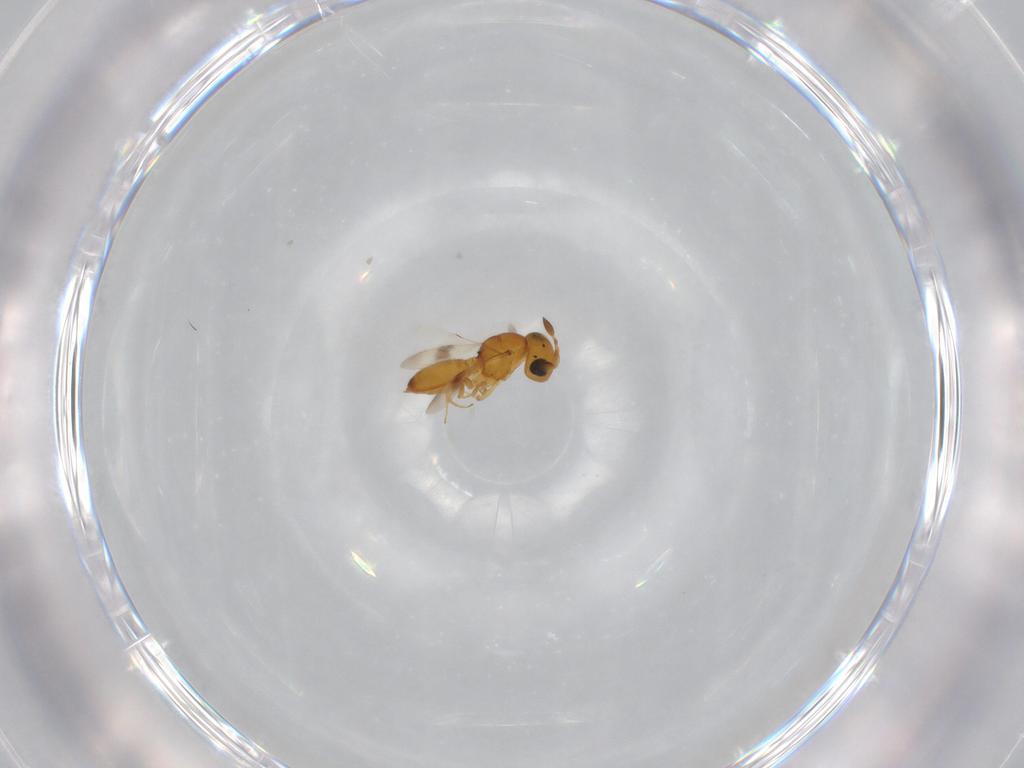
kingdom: Animalia
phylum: Arthropoda
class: Insecta
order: Hymenoptera
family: Scelionidae
